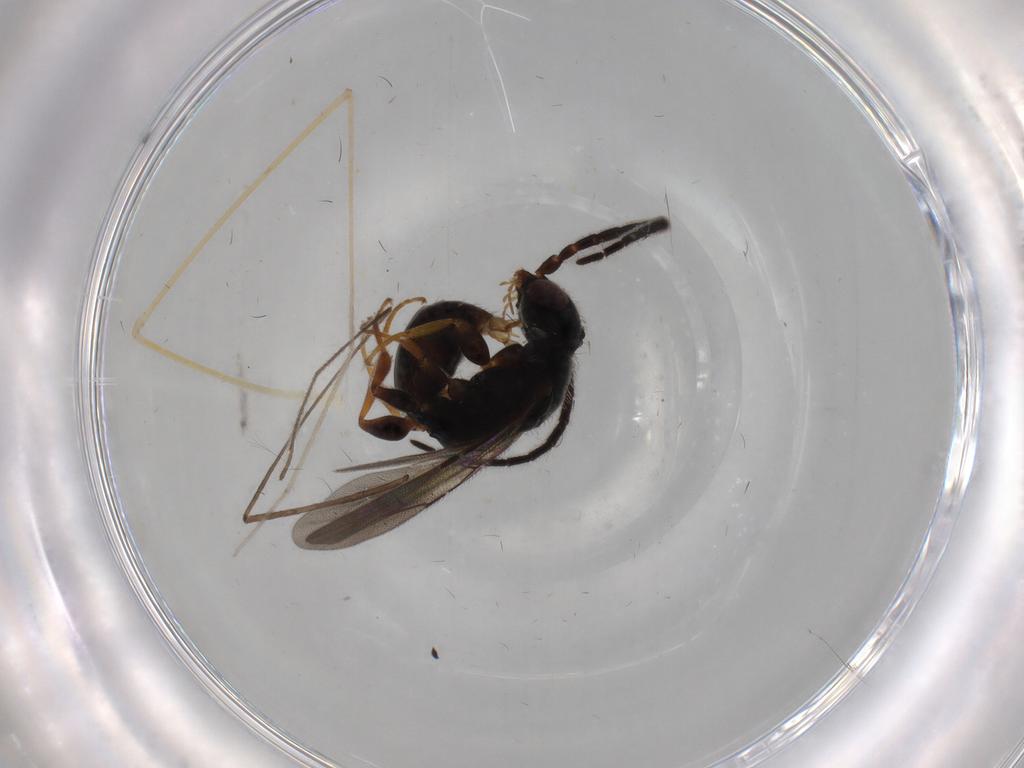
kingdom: Animalia
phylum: Arthropoda
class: Insecta
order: Hymenoptera
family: Bethylidae
